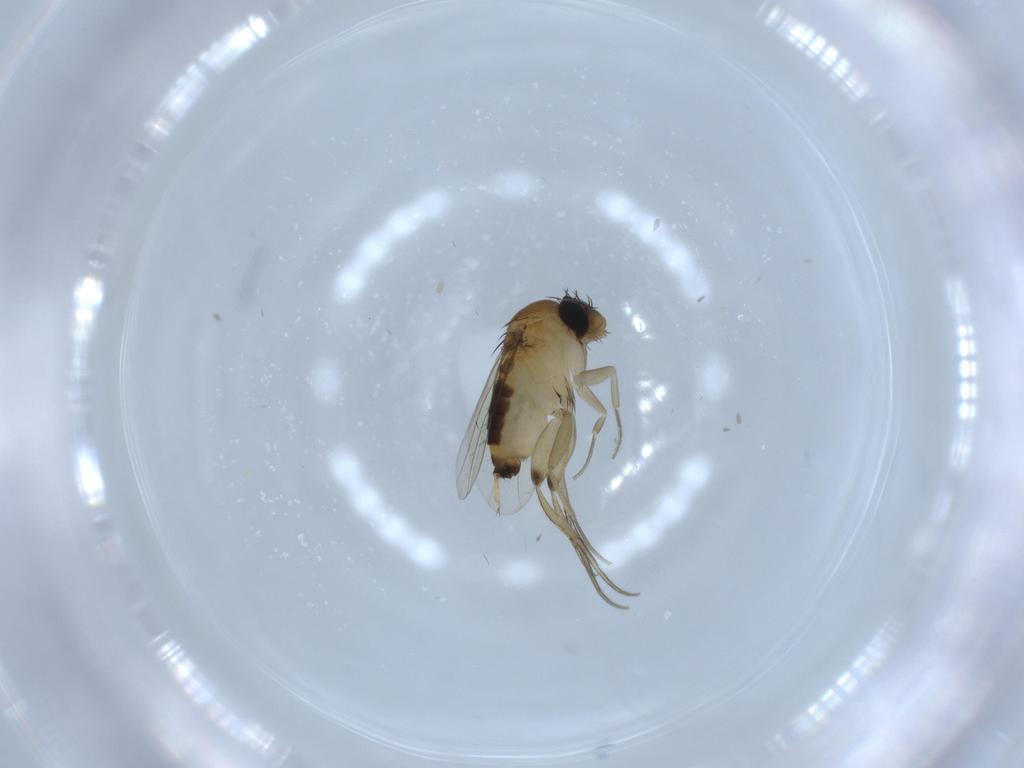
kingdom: Animalia
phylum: Arthropoda
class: Insecta
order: Diptera
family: Phoridae
